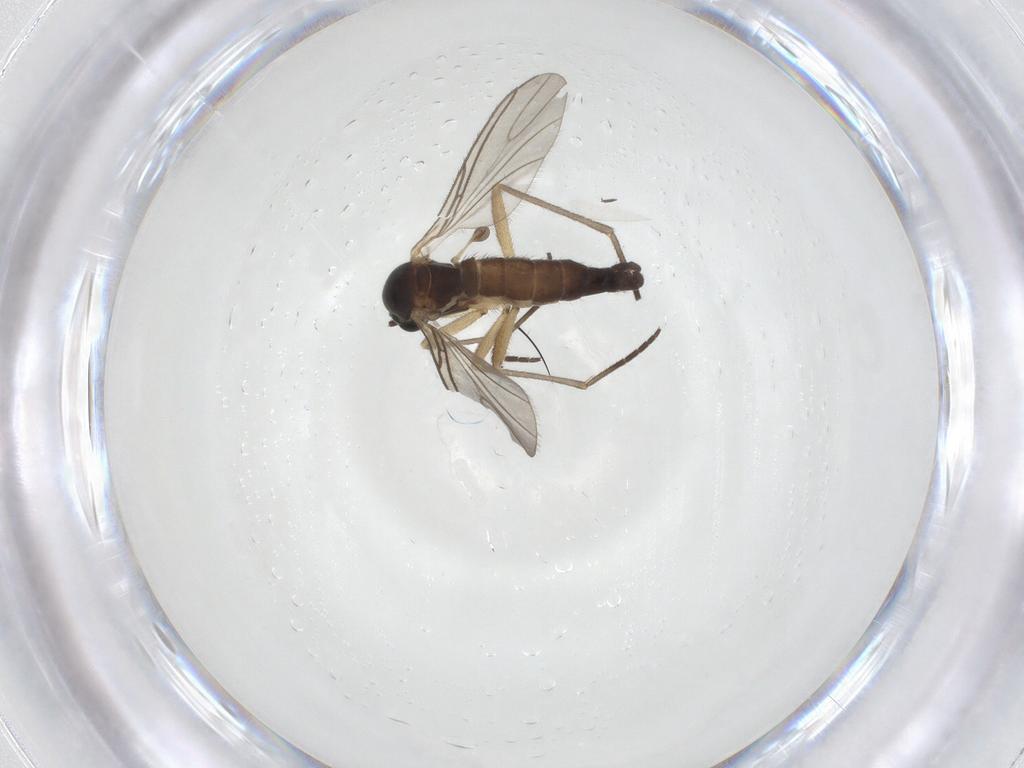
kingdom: Animalia
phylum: Arthropoda
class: Insecta
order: Diptera
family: Sciaridae
